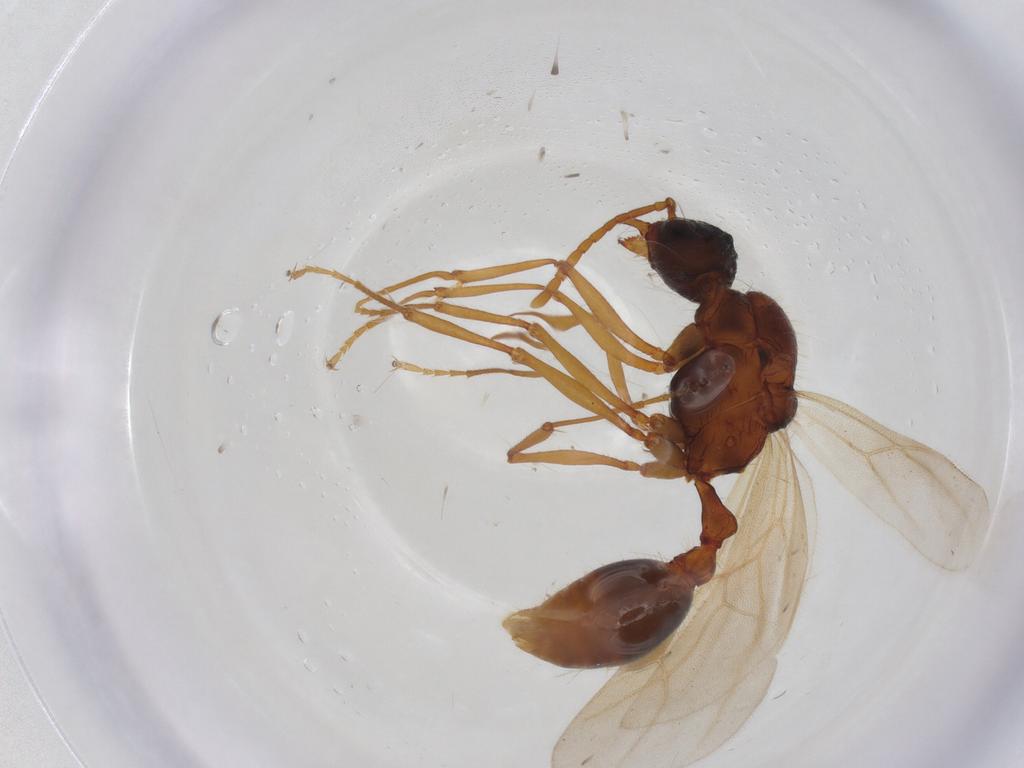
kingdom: Animalia
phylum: Arthropoda
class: Insecta
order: Hymenoptera
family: Formicidae
